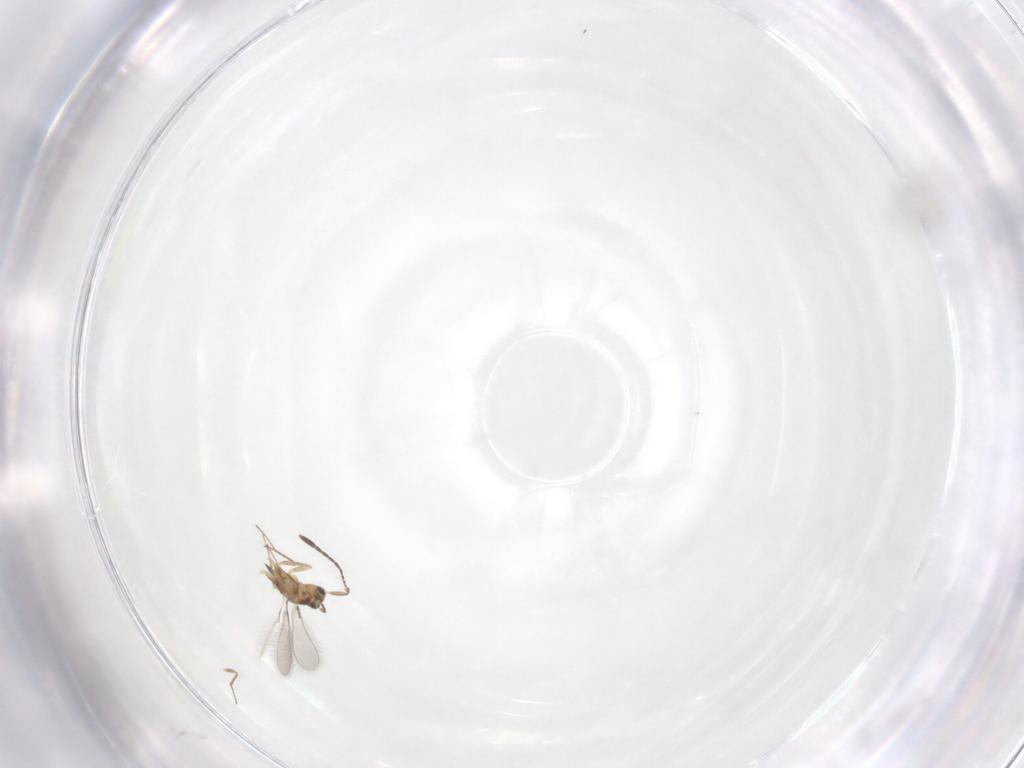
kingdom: Animalia
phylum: Arthropoda
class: Insecta
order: Hymenoptera
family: Mymaridae
